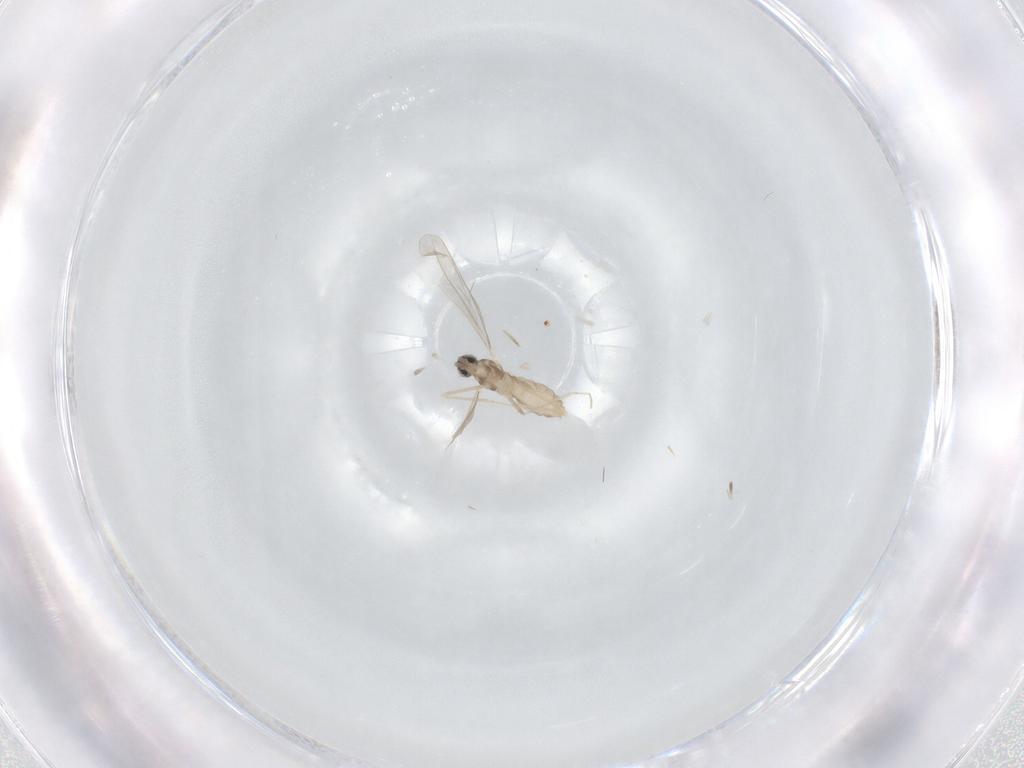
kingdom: Animalia
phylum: Arthropoda
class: Insecta
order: Diptera
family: Cecidomyiidae
